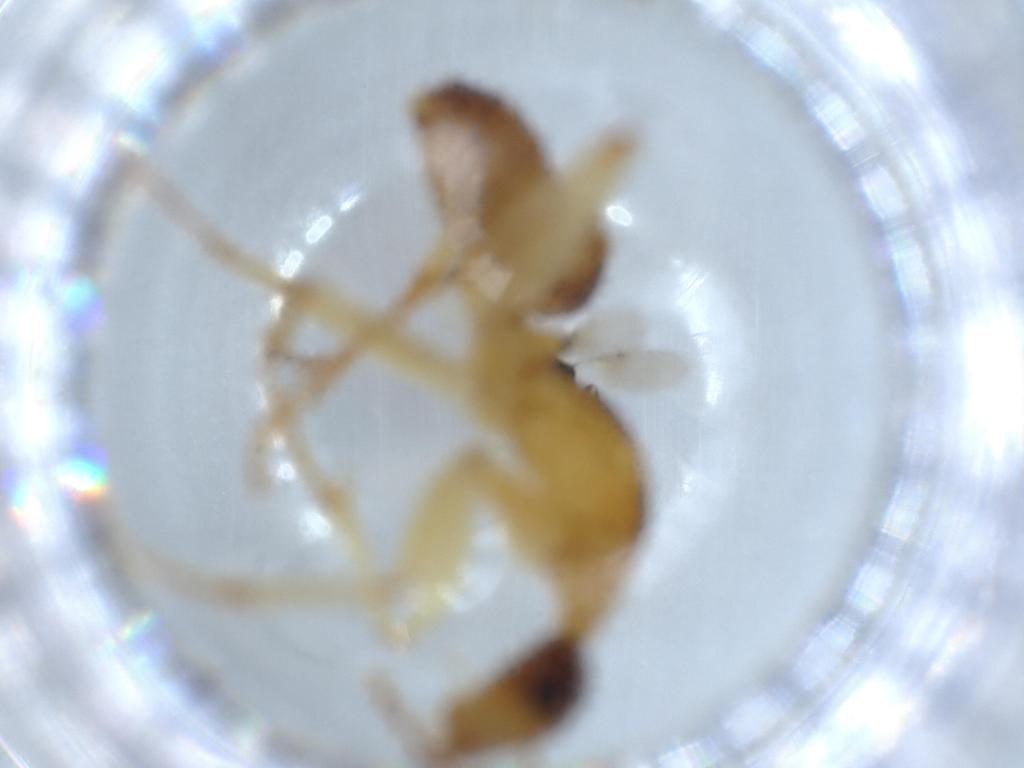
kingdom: Animalia
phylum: Arthropoda
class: Insecta
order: Hymenoptera
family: Formicidae
